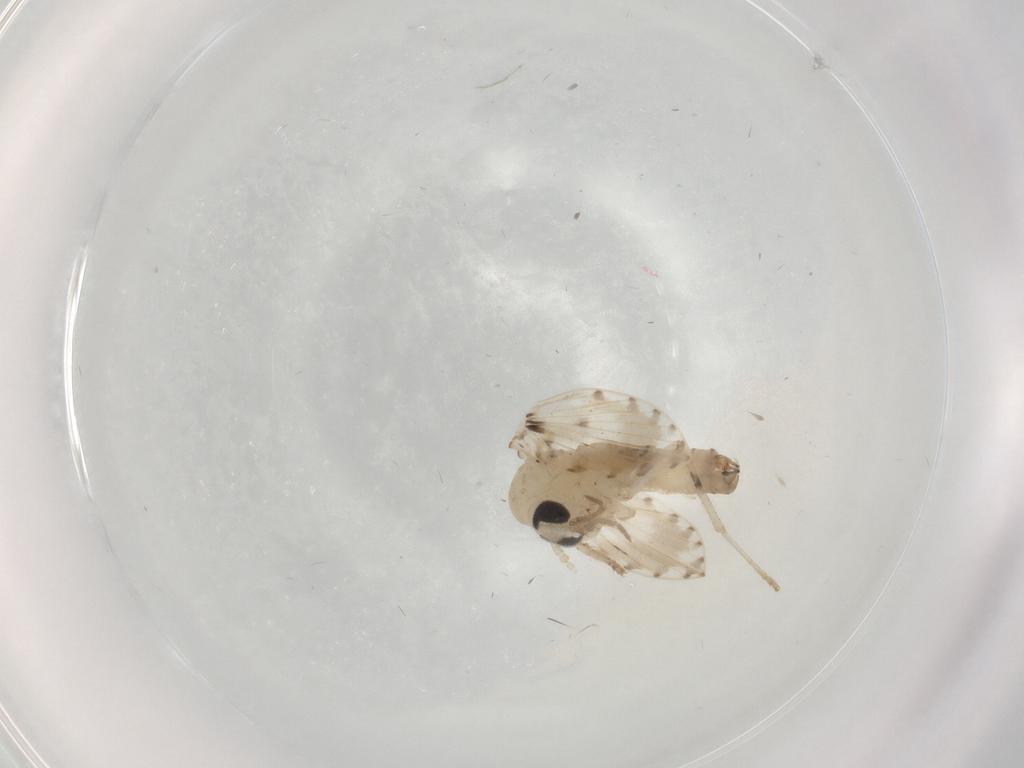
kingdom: Animalia
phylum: Arthropoda
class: Insecta
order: Diptera
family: Psychodidae
